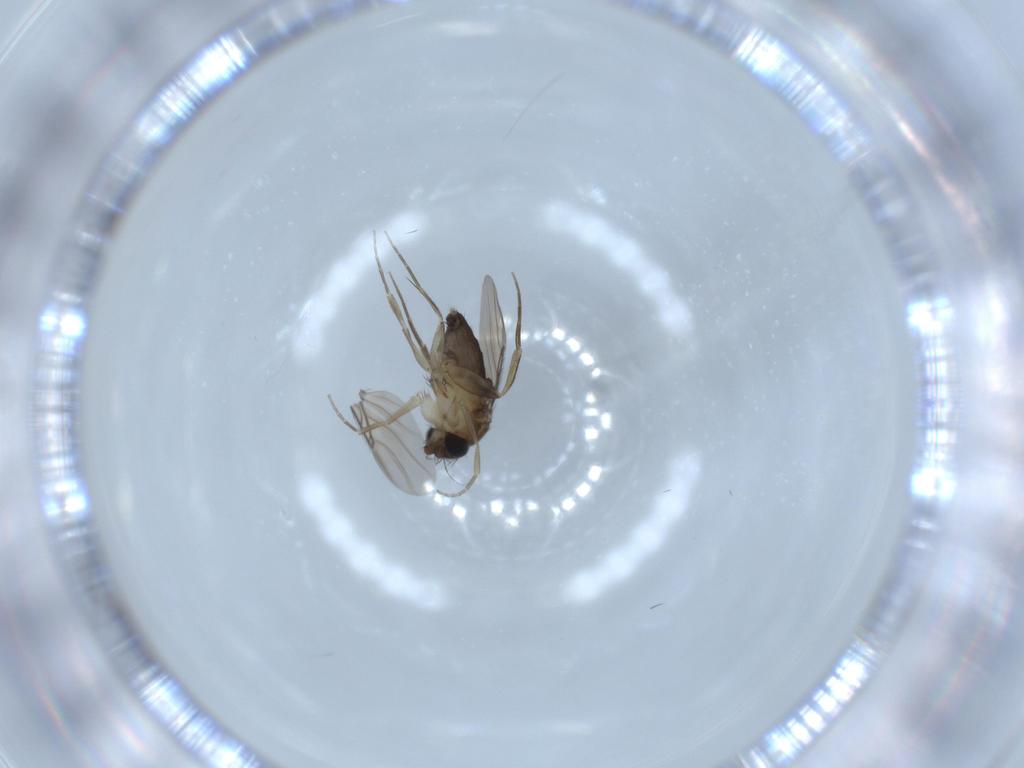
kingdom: Animalia
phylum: Arthropoda
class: Insecta
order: Diptera
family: Phoridae
